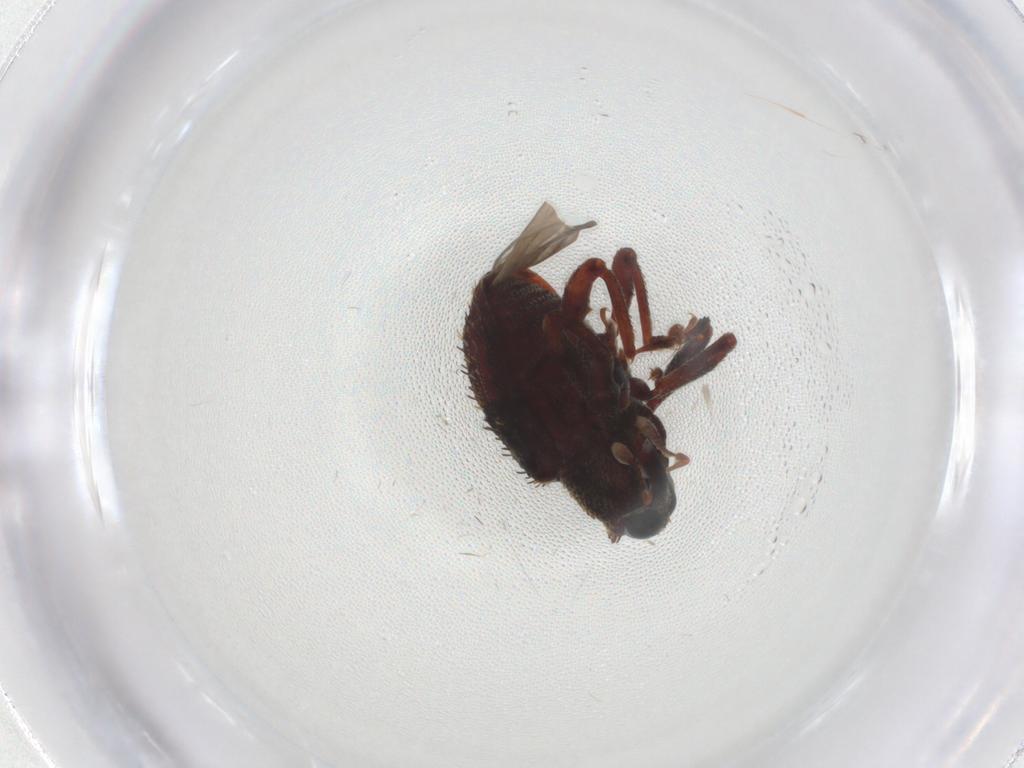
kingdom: Animalia
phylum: Arthropoda
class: Insecta
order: Coleoptera
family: Curculionidae
